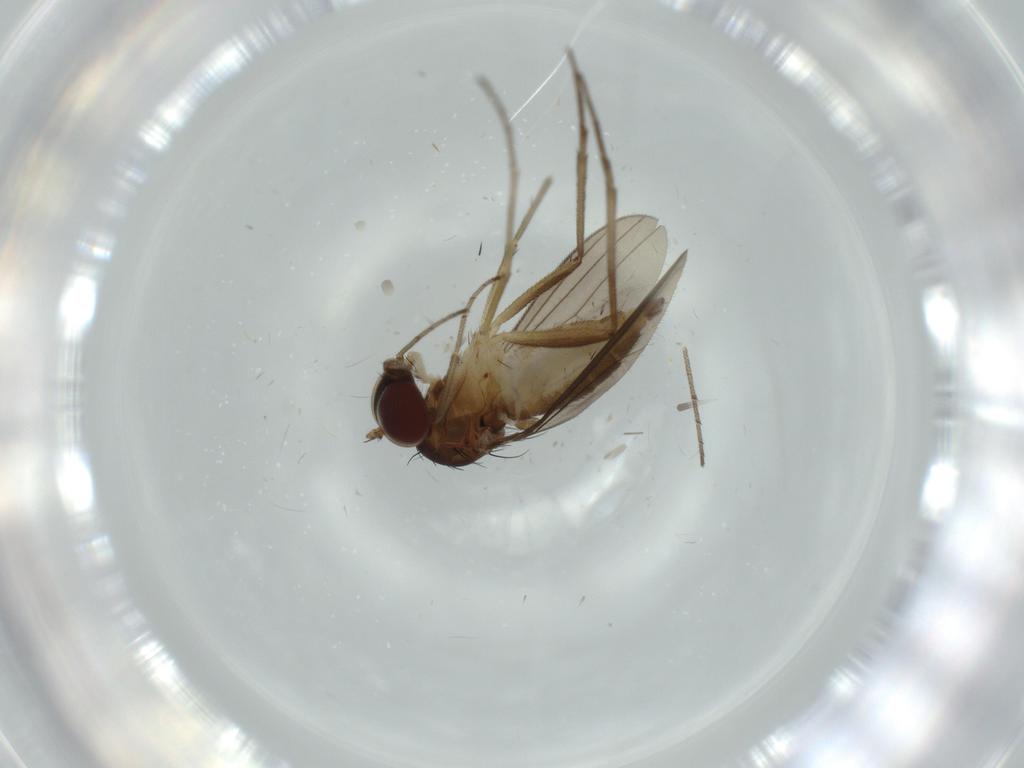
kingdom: Animalia
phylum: Arthropoda
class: Insecta
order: Diptera
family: Dolichopodidae
